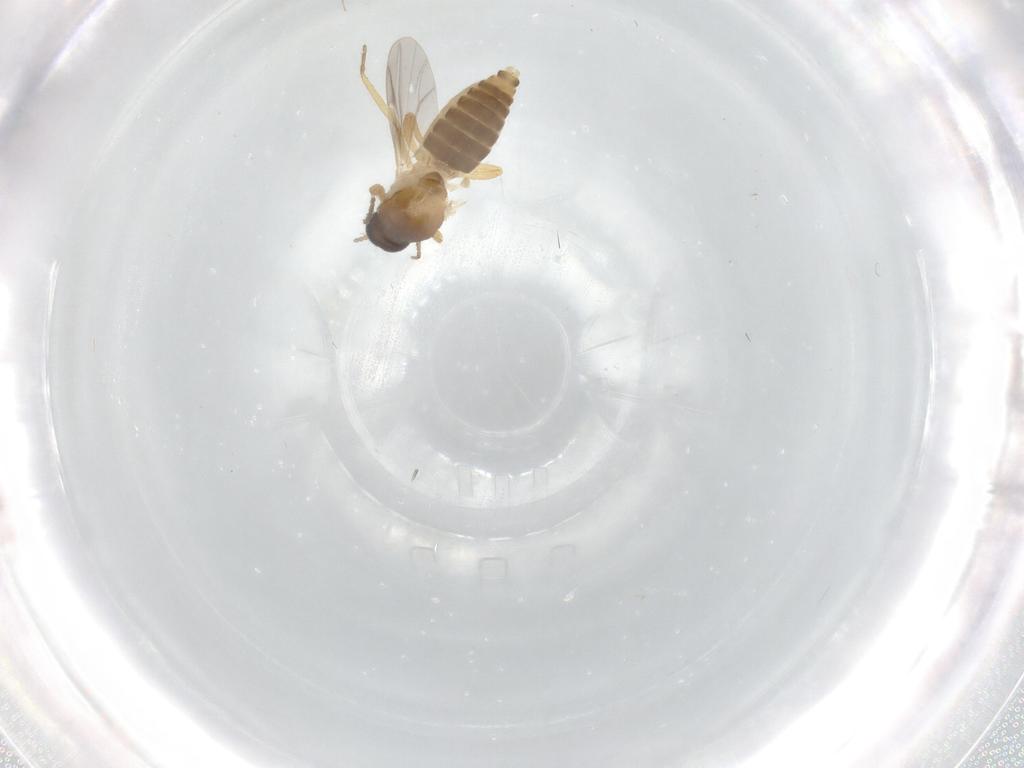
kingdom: Animalia
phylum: Arthropoda
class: Insecta
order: Diptera
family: Ceratopogonidae
